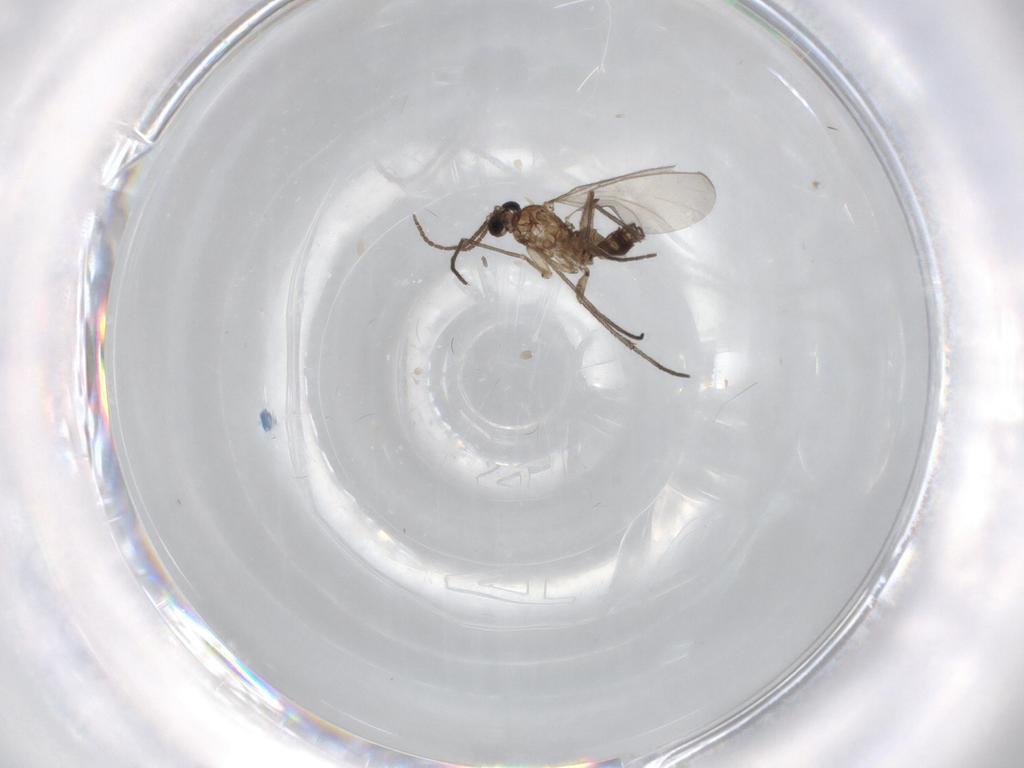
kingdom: Animalia
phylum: Arthropoda
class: Insecta
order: Diptera
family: Sciaridae
